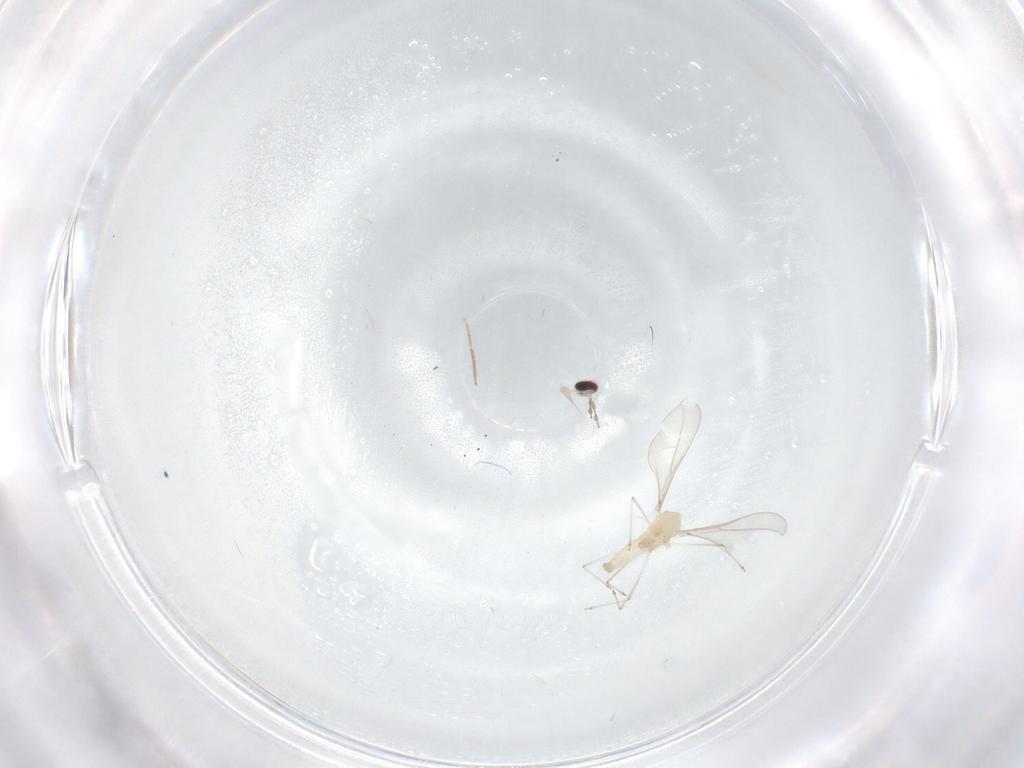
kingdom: Animalia
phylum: Arthropoda
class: Insecta
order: Diptera
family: Cecidomyiidae
